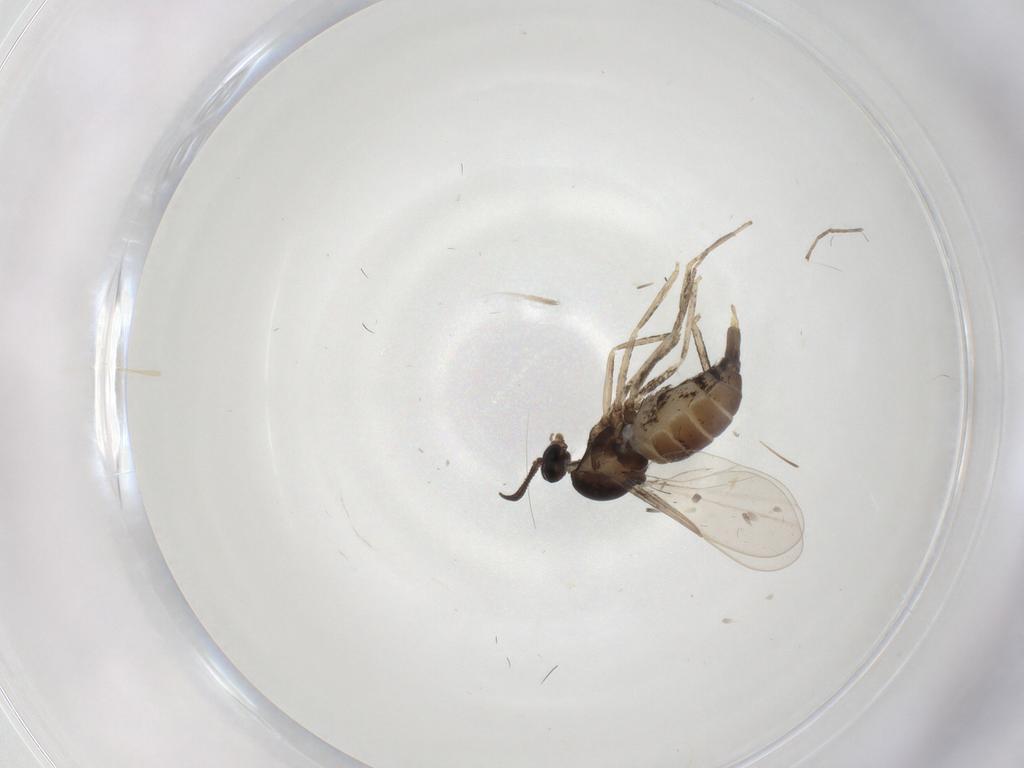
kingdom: Animalia
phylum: Arthropoda
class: Insecta
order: Diptera
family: Cecidomyiidae
